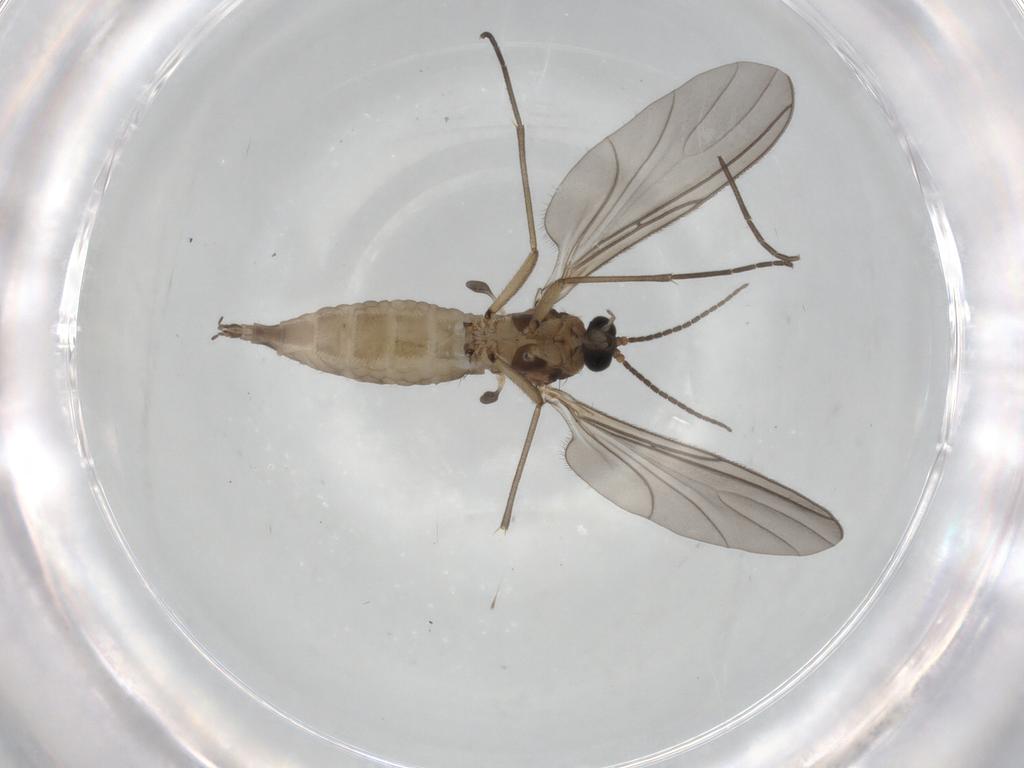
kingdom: Animalia
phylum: Arthropoda
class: Insecta
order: Diptera
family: Sciaridae
